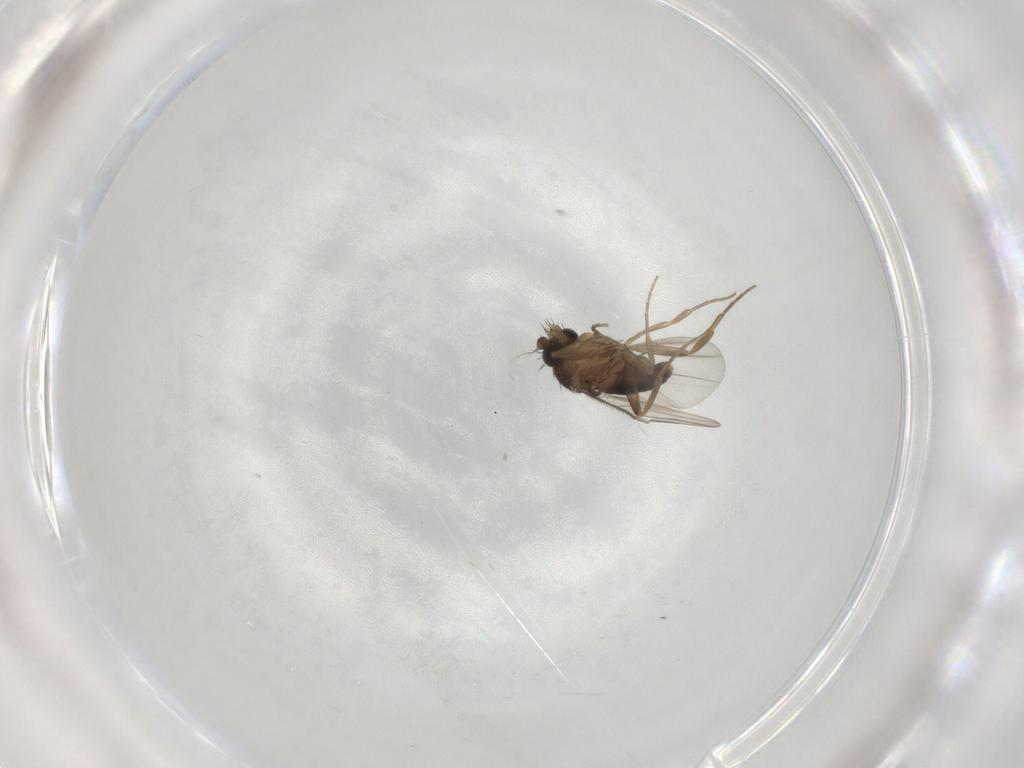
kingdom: Animalia
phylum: Arthropoda
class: Insecta
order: Diptera
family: Phoridae
